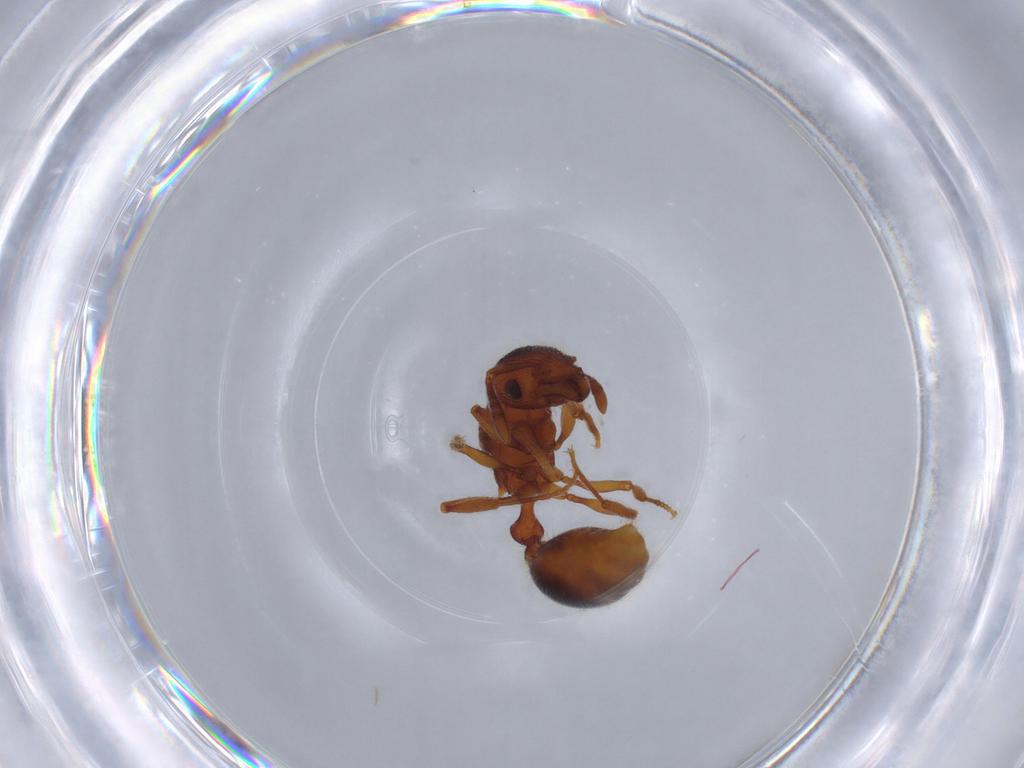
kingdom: Animalia
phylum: Arthropoda
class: Insecta
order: Hymenoptera
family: Formicidae
